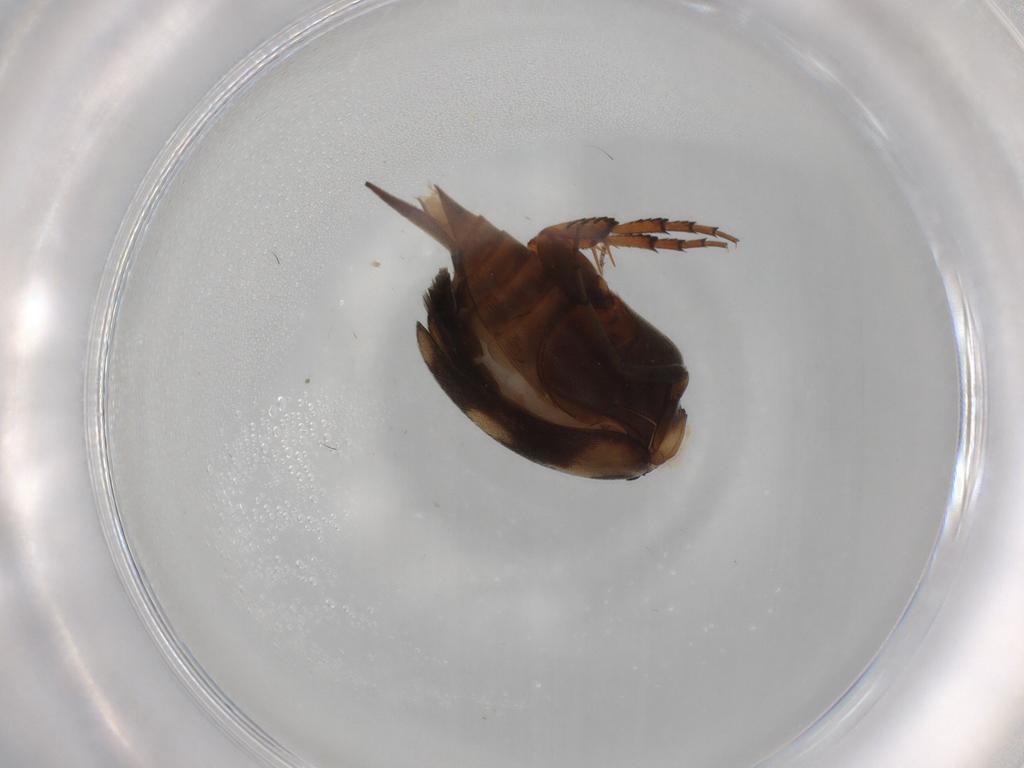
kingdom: Animalia
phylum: Arthropoda
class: Insecta
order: Coleoptera
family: Mordellidae
